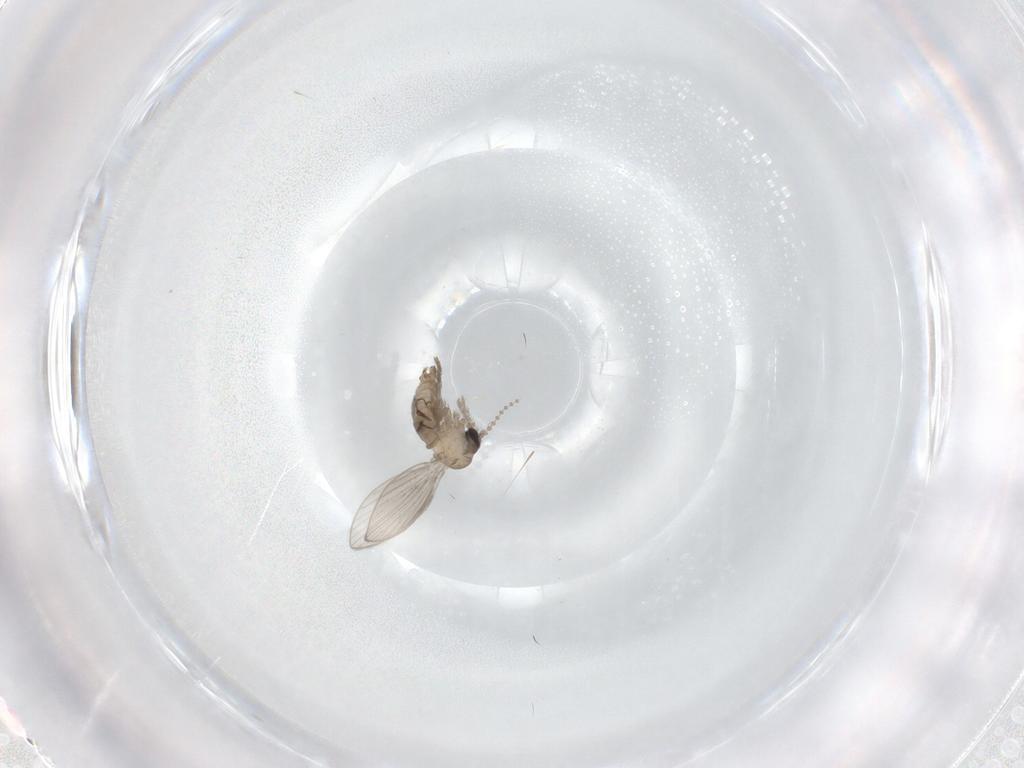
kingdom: Animalia
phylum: Arthropoda
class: Insecta
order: Diptera
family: Psychodidae
